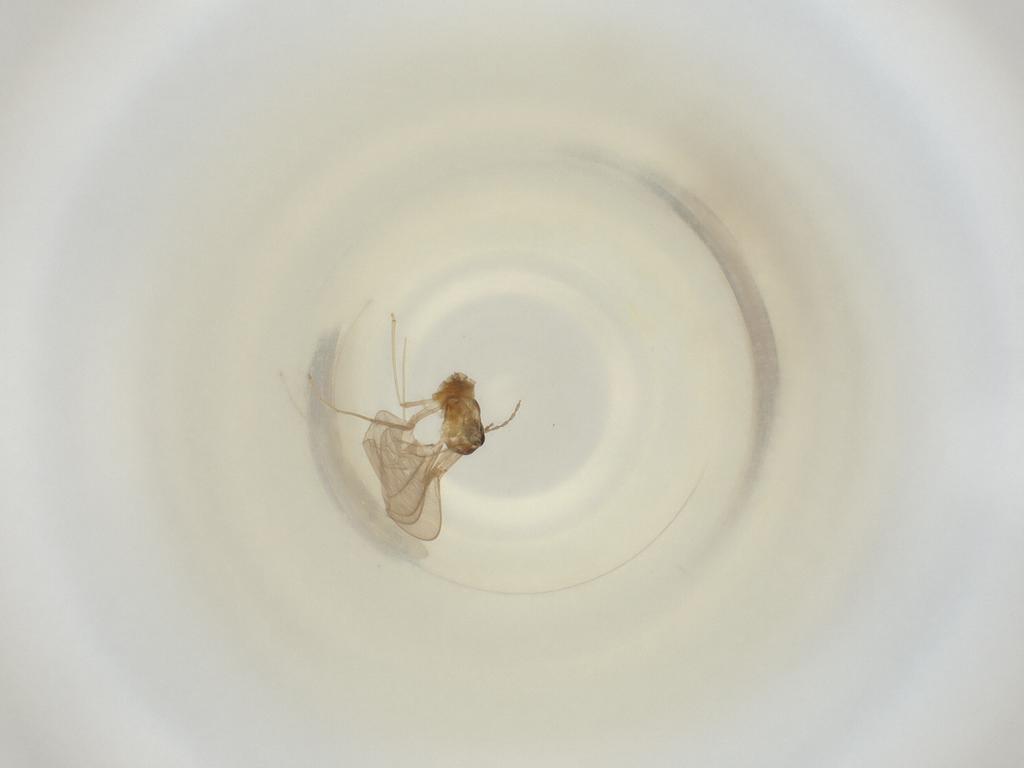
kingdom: Animalia
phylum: Arthropoda
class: Insecta
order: Diptera
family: Cecidomyiidae
